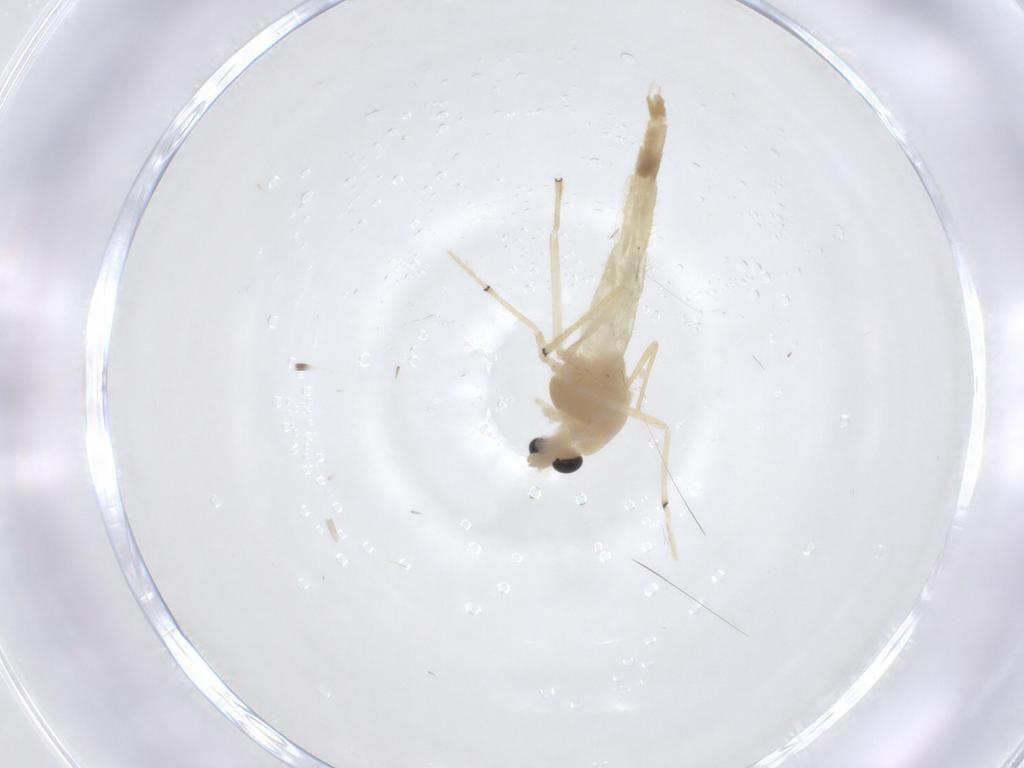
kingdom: Animalia
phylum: Arthropoda
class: Insecta
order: Diptera
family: Chironomidae
